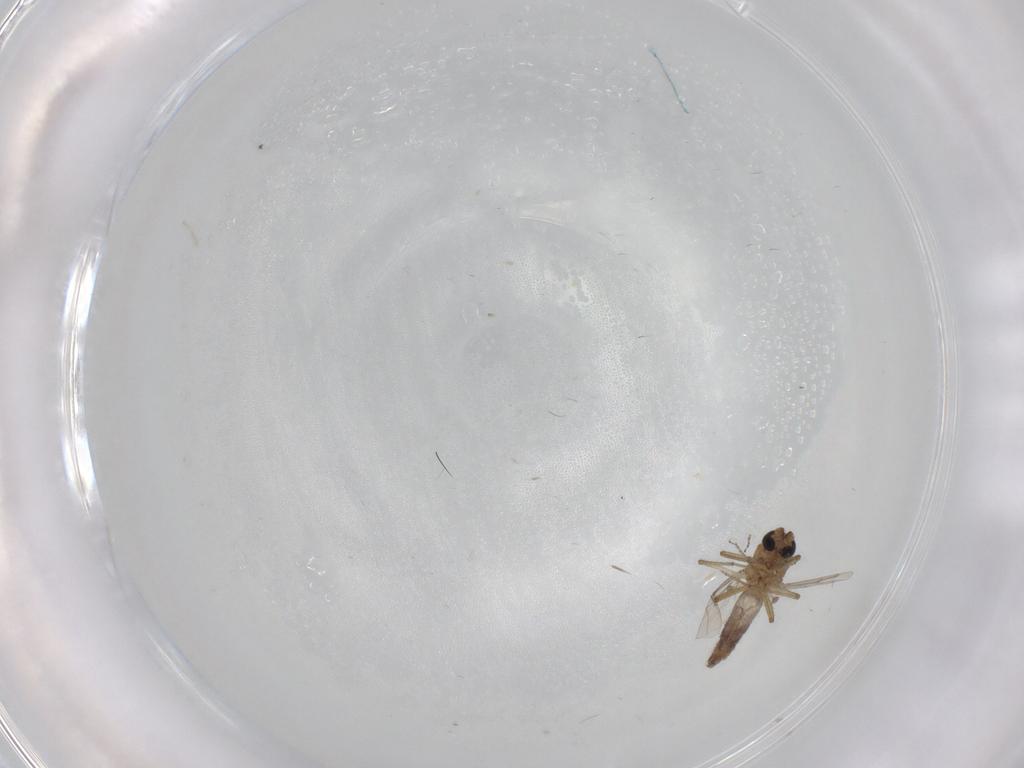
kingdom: Animalia
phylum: Arthropoda
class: Insecta
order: Diptera
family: Ceratopogonidae
